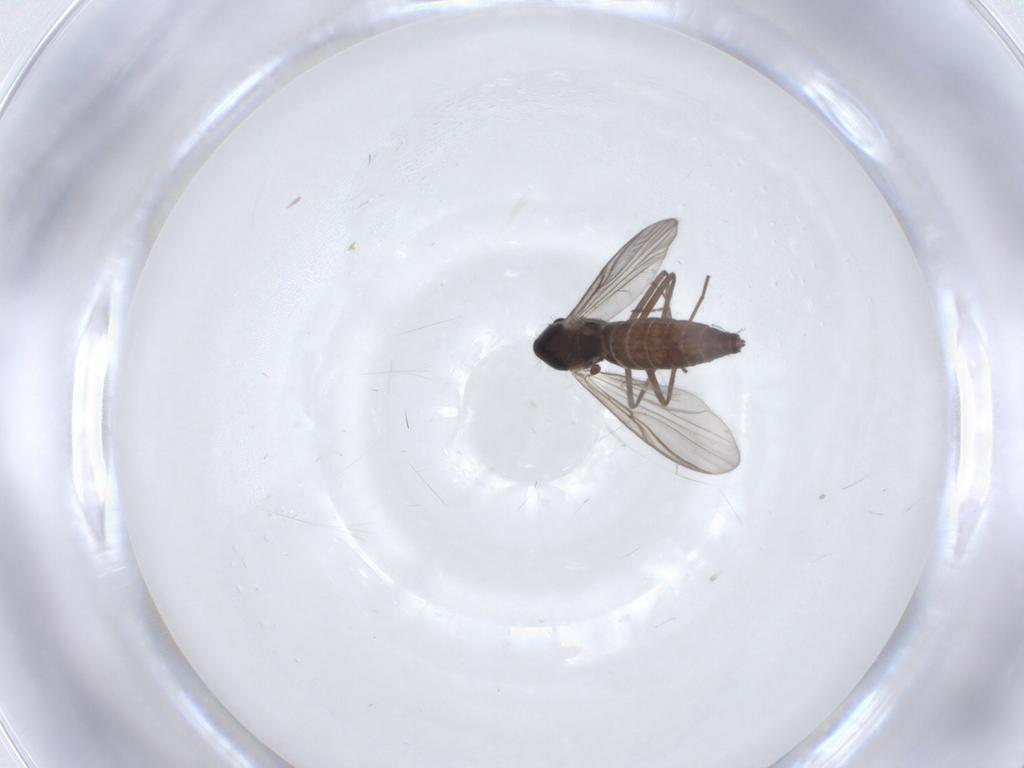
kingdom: Animalia
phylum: Arthropoda
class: Insecta
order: Diptera
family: Chironomidae
